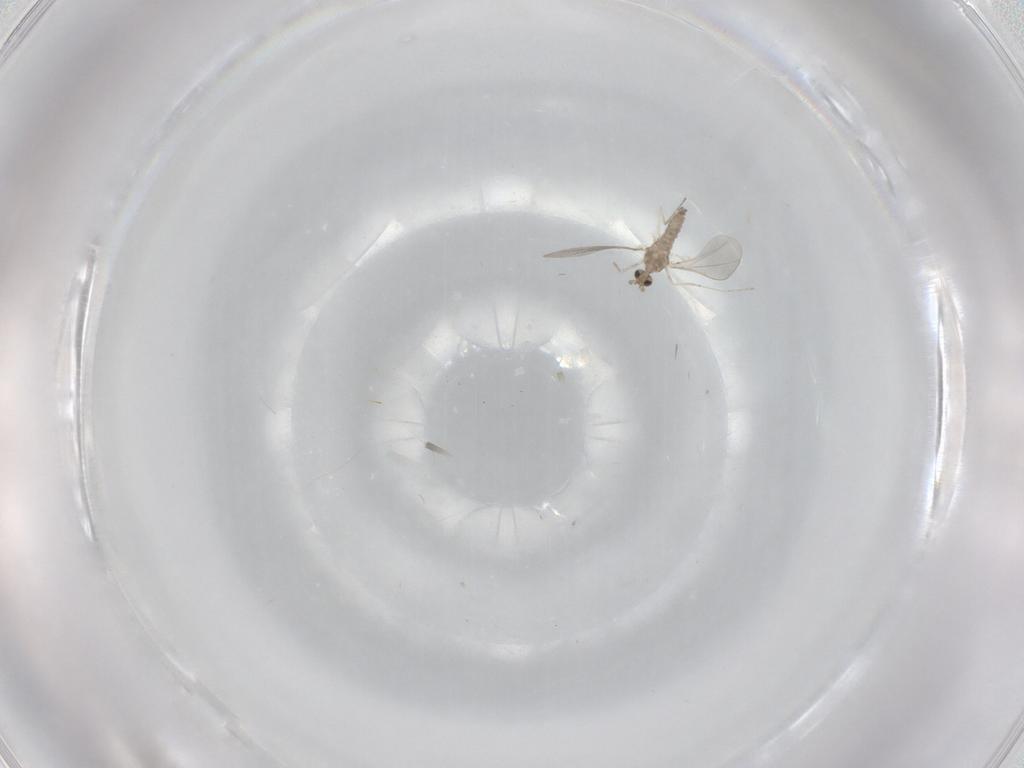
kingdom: Animalia
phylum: Arthropoda
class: Insecta
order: Diptera
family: Cecidomyiidae
